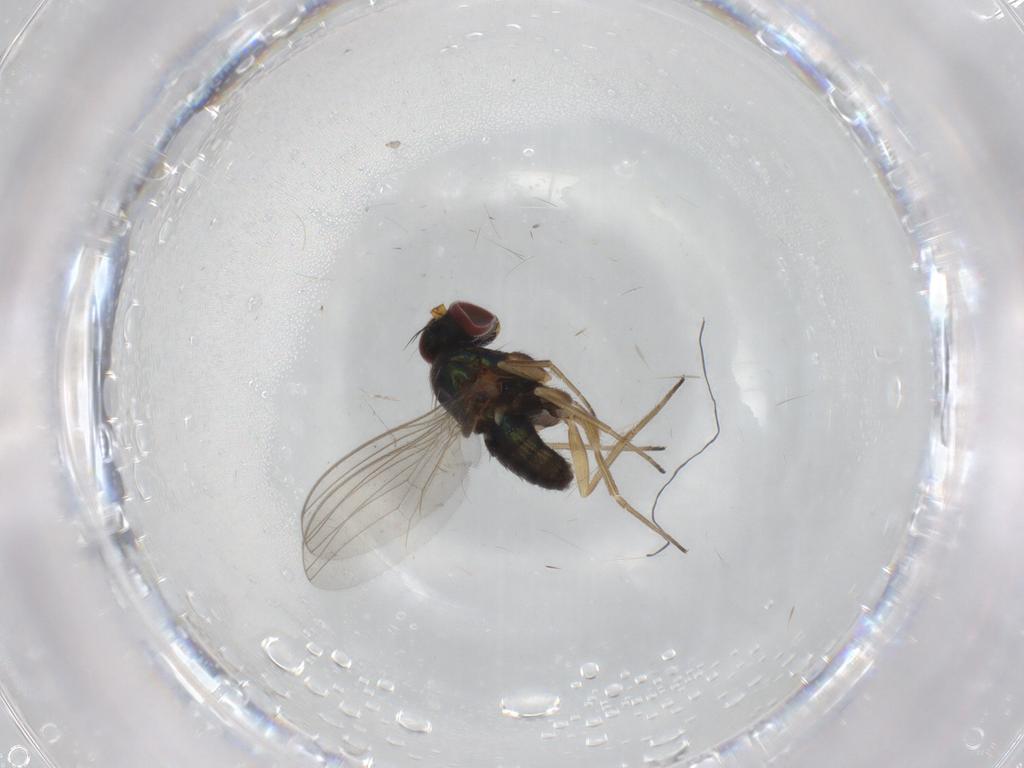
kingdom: Animalia
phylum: Arthropoda
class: Insecta
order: Diptera
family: Dolichopodidae
